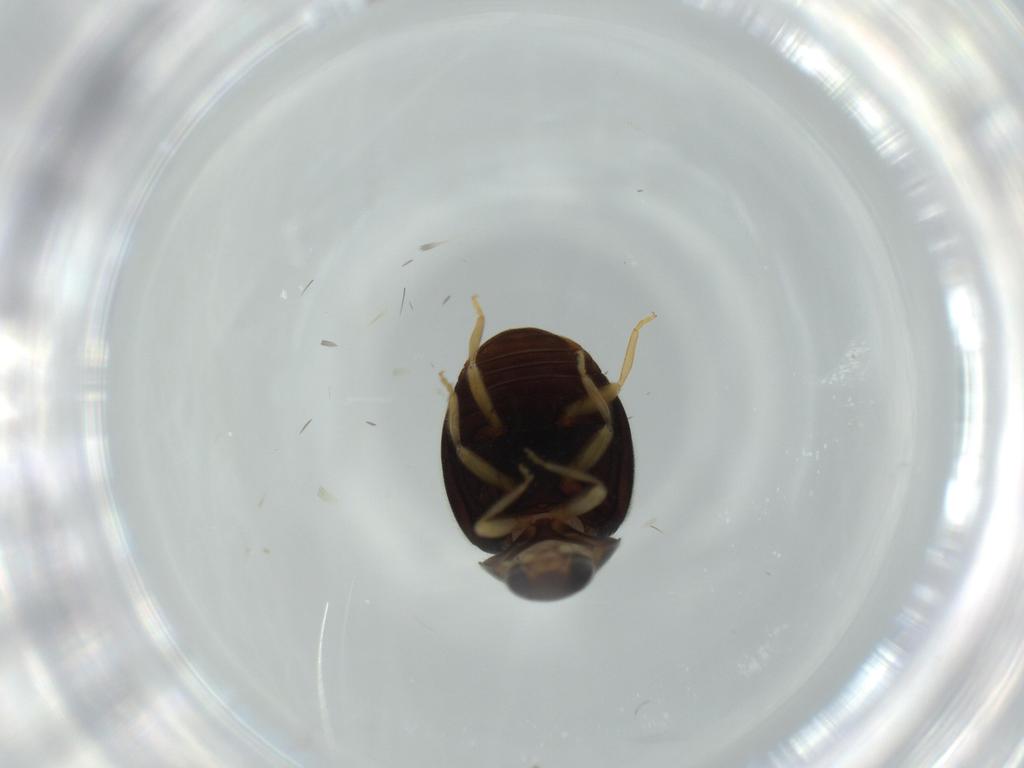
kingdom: Animalia
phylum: Arthropoda
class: Insecta
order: Coleoptera
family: Coccinellidae
